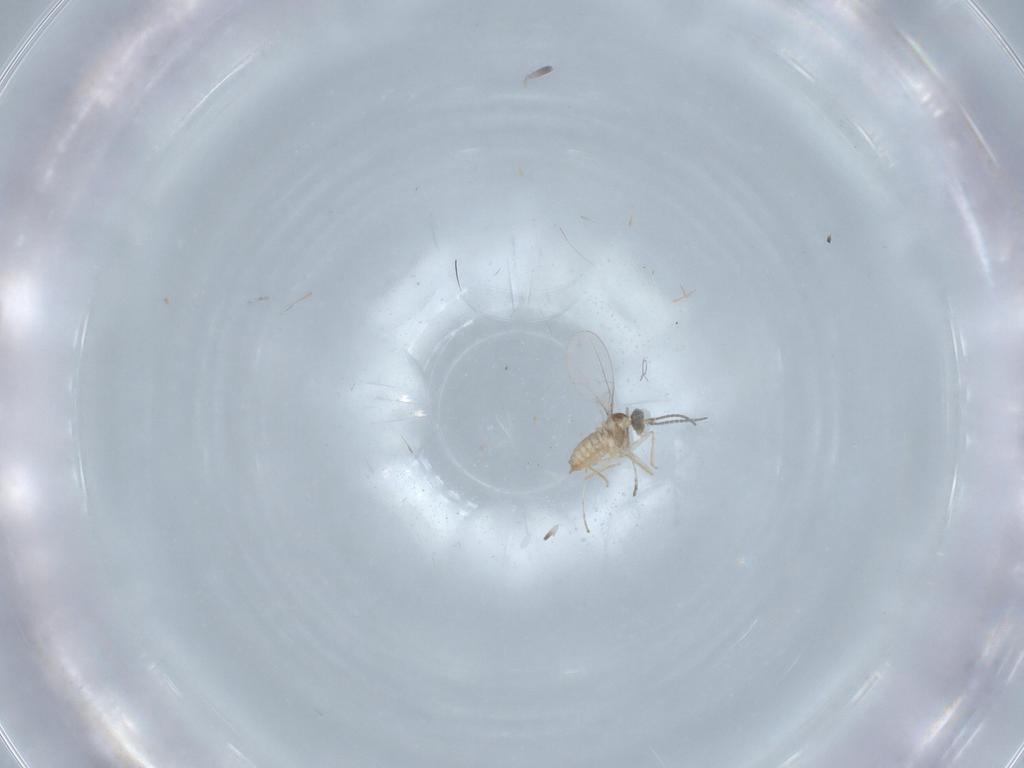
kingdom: Animalia
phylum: Arthropoda
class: Insecta
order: Diptera
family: Cecidomyiidae
